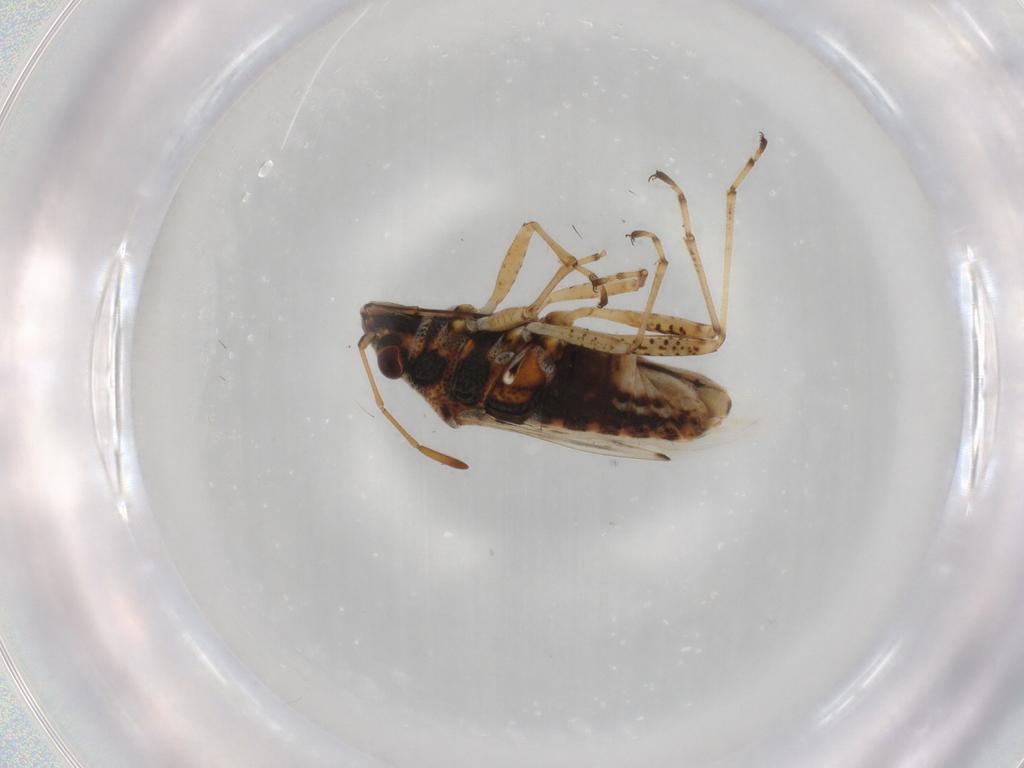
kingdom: Animalia
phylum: Arthropoda
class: Insecta
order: Hemiptera
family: Lygaeidae
